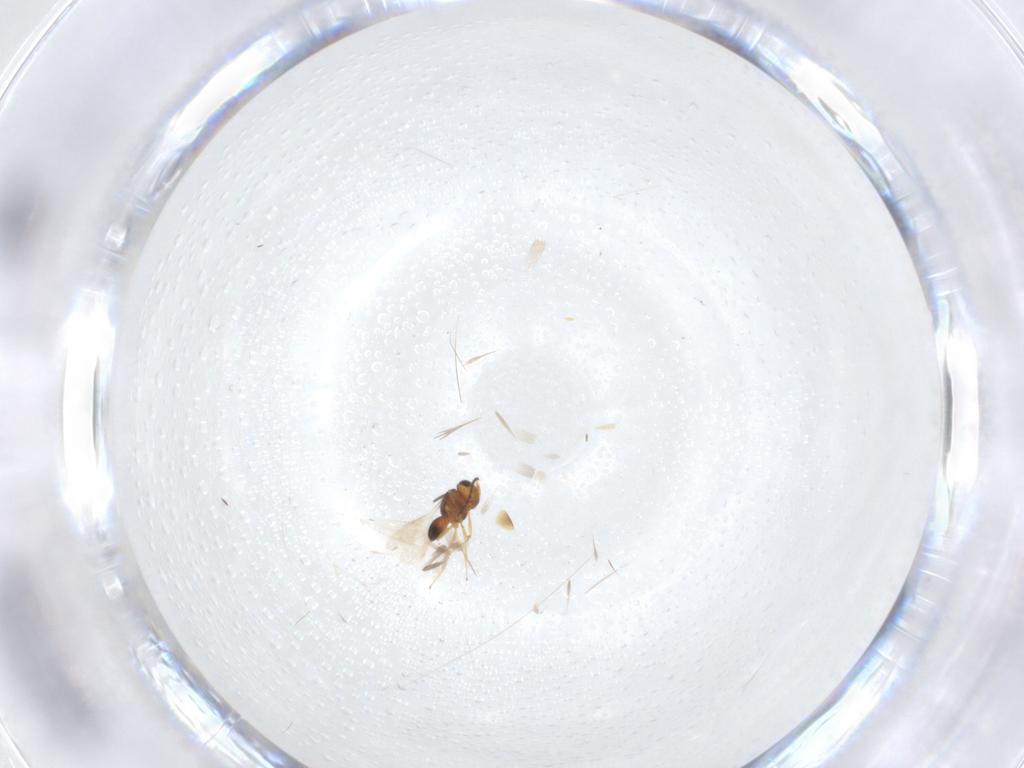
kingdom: Animalia
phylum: Arthropoda
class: Insecta
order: Hymenoptera
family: Scelionidae
